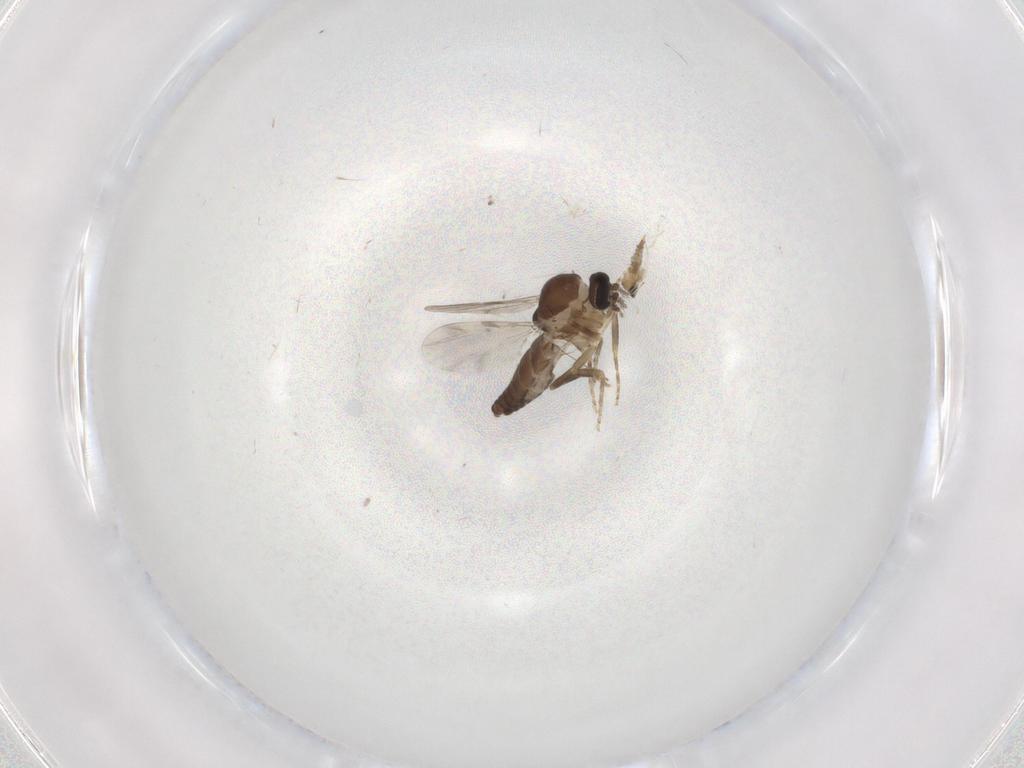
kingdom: Animalia
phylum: Arthropoda
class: Insecta
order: Diptera
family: Ceratopogonidae
